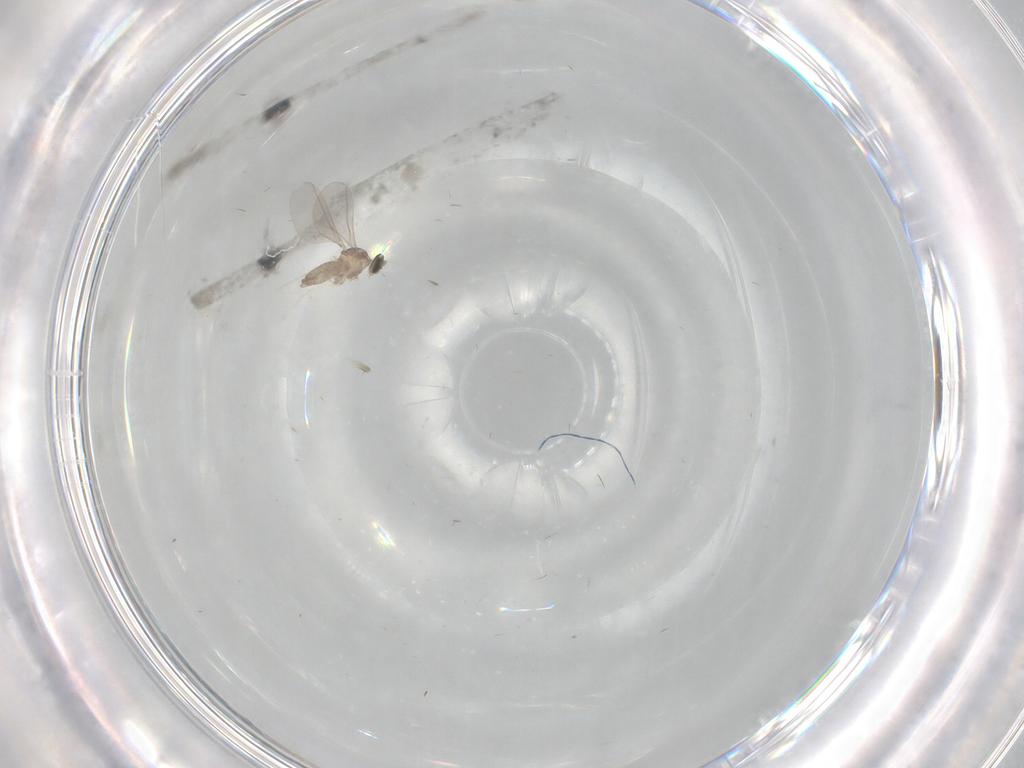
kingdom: Animalia
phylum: Arthropoda
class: Insecta
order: Diptera
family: Cecidomyiidae
